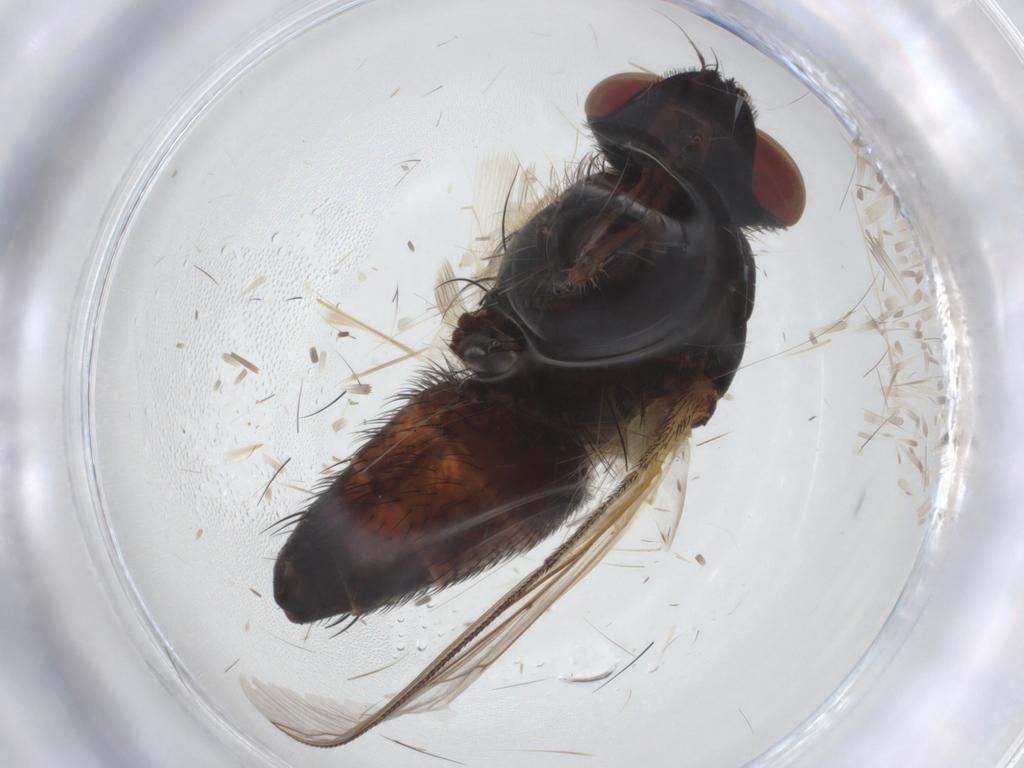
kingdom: Animalia
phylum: Arthropoda
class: Insecta
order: Diptera
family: Sarcophagidae
